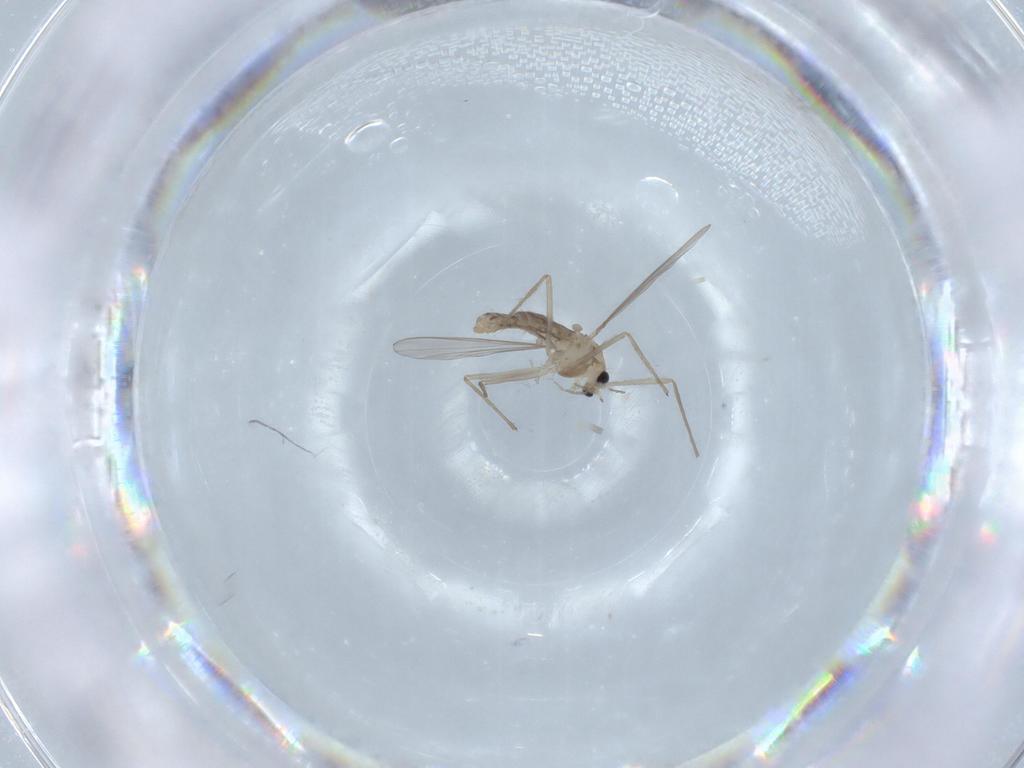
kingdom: Animalia
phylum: Arthropoda
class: Insecta
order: Diptera
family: Chironomidae
